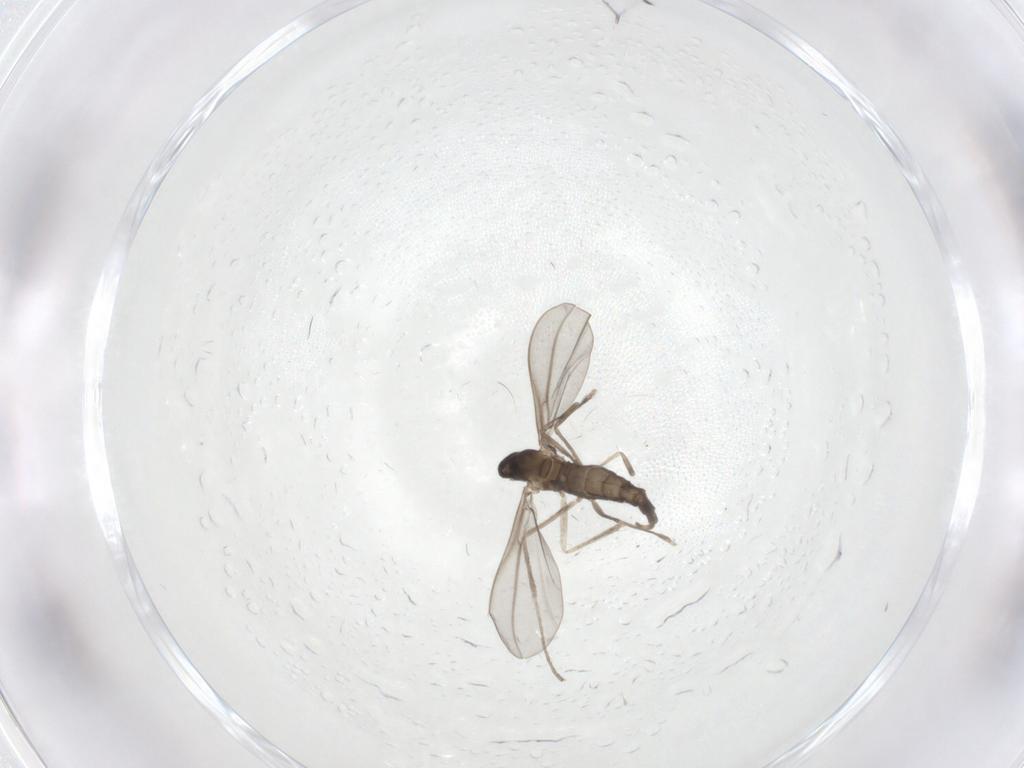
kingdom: Animalia
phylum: Arthropoda
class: Insecta
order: Diptera
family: Cecidomyiidae
